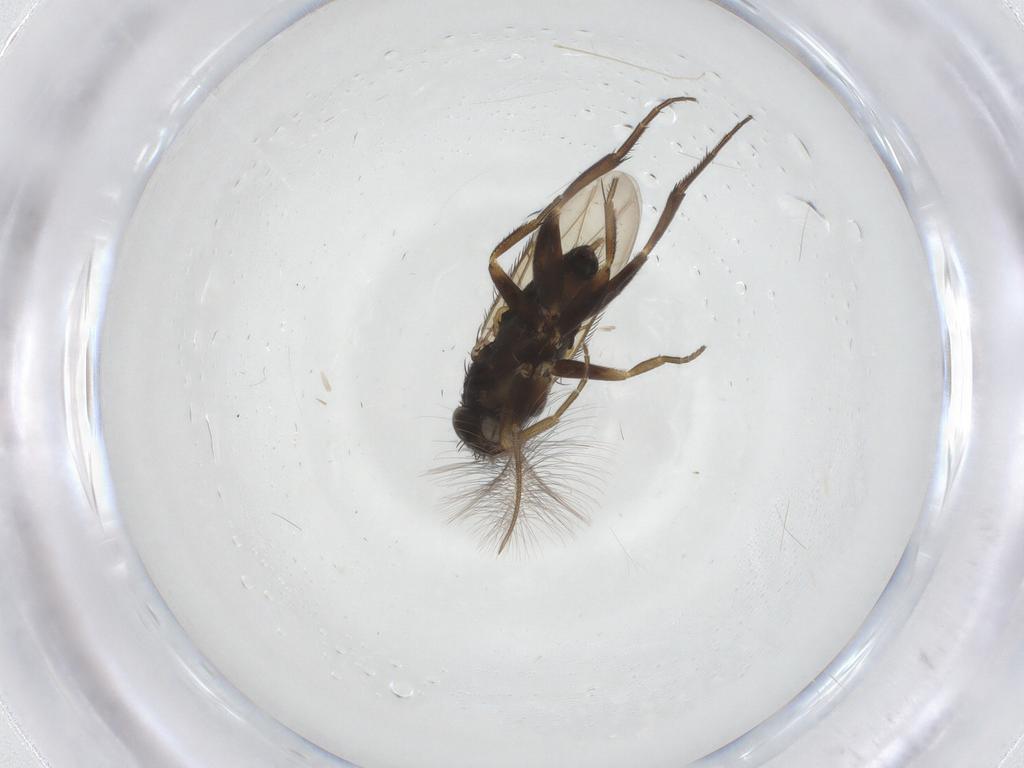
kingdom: Animalia
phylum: Arthropoda
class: Insecta
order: Diptera
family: Phoridae
